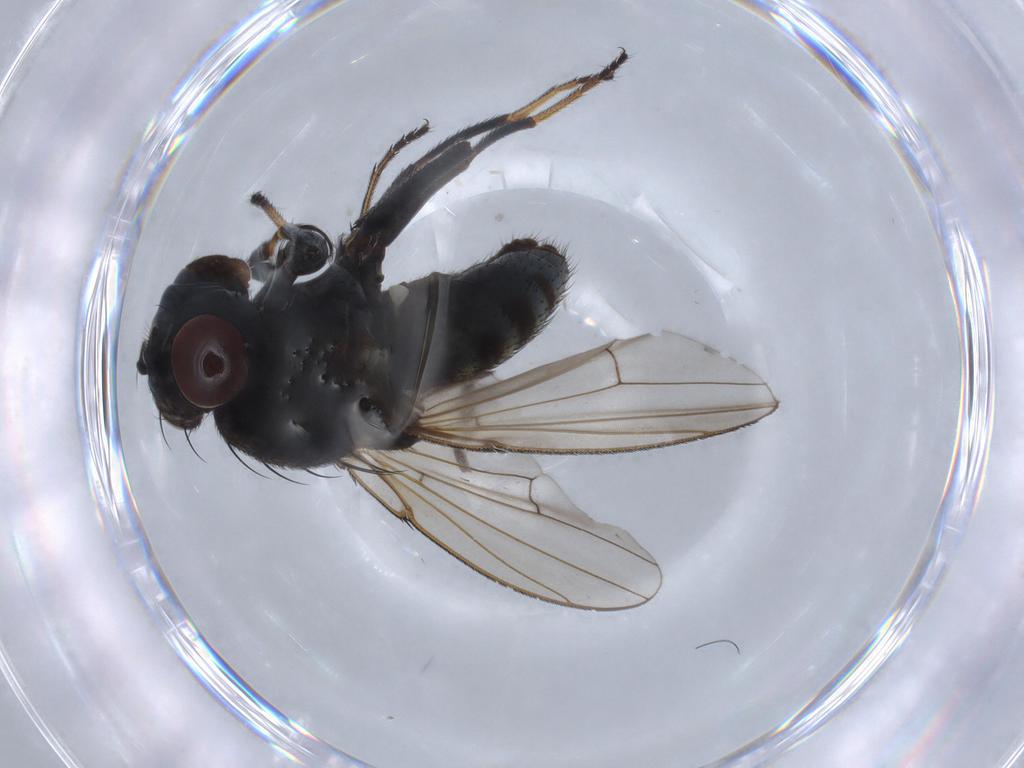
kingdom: Animalia
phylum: Arthropoda
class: Insecta
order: Diptera
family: Ephydridae
